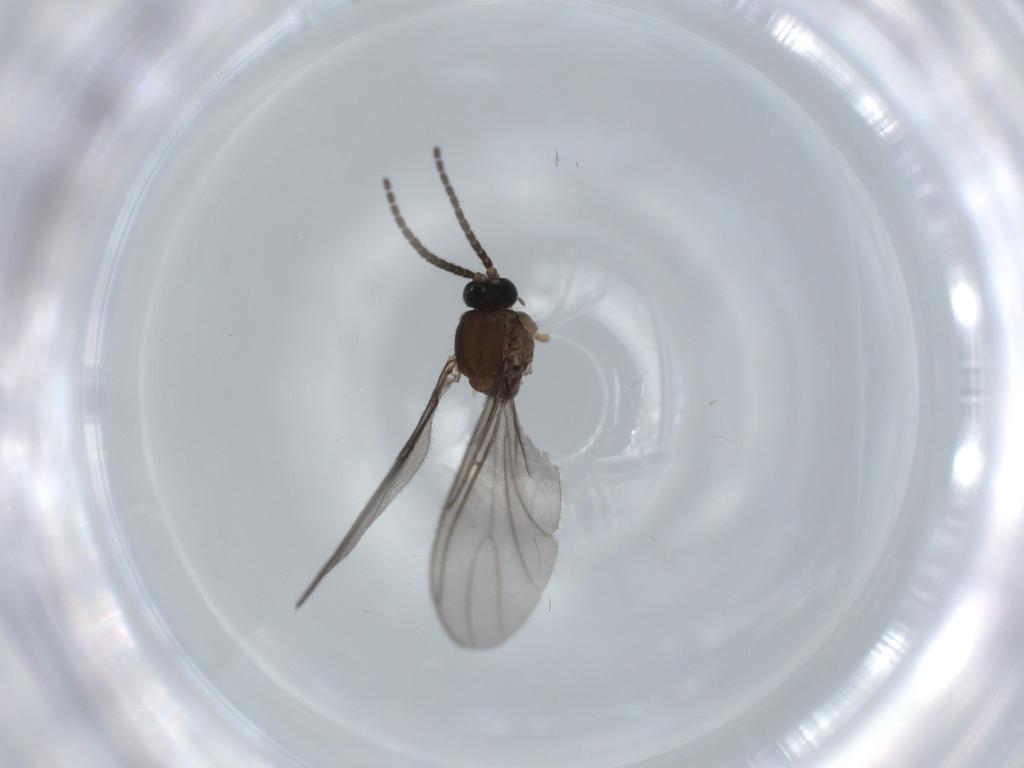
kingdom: Animalia
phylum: Arthropoda
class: Insecta
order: Diptera
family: Sciaridae
